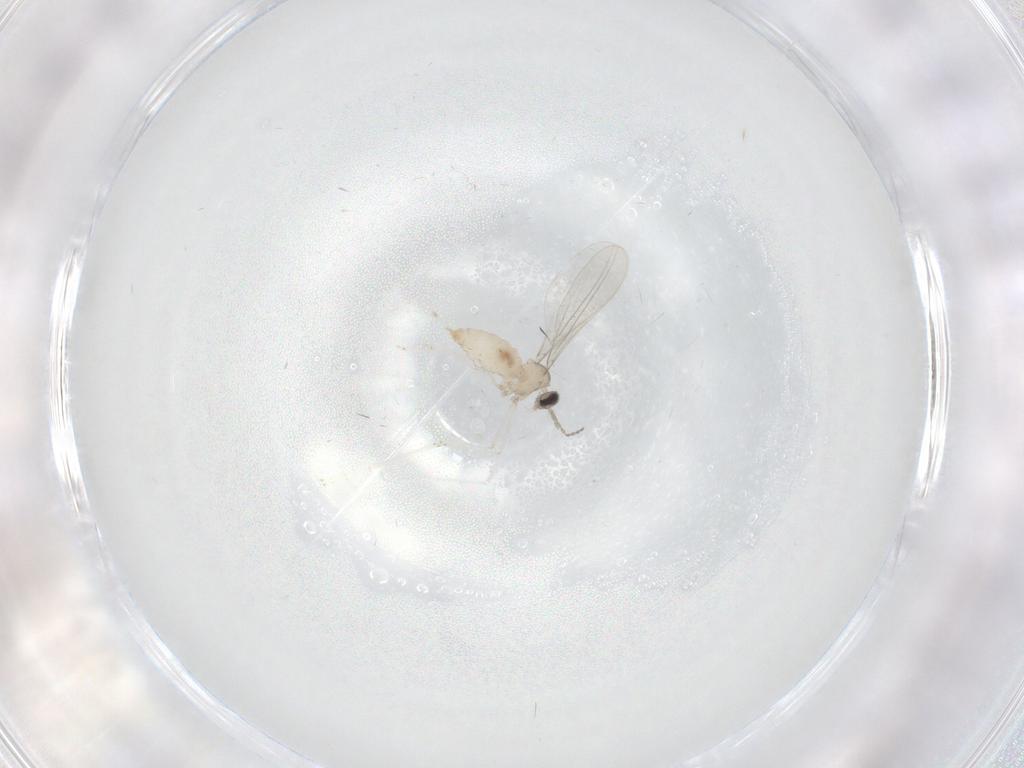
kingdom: Animalia
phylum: Arthropoda
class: Insecta
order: Diptera
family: Cecidomyiidae
